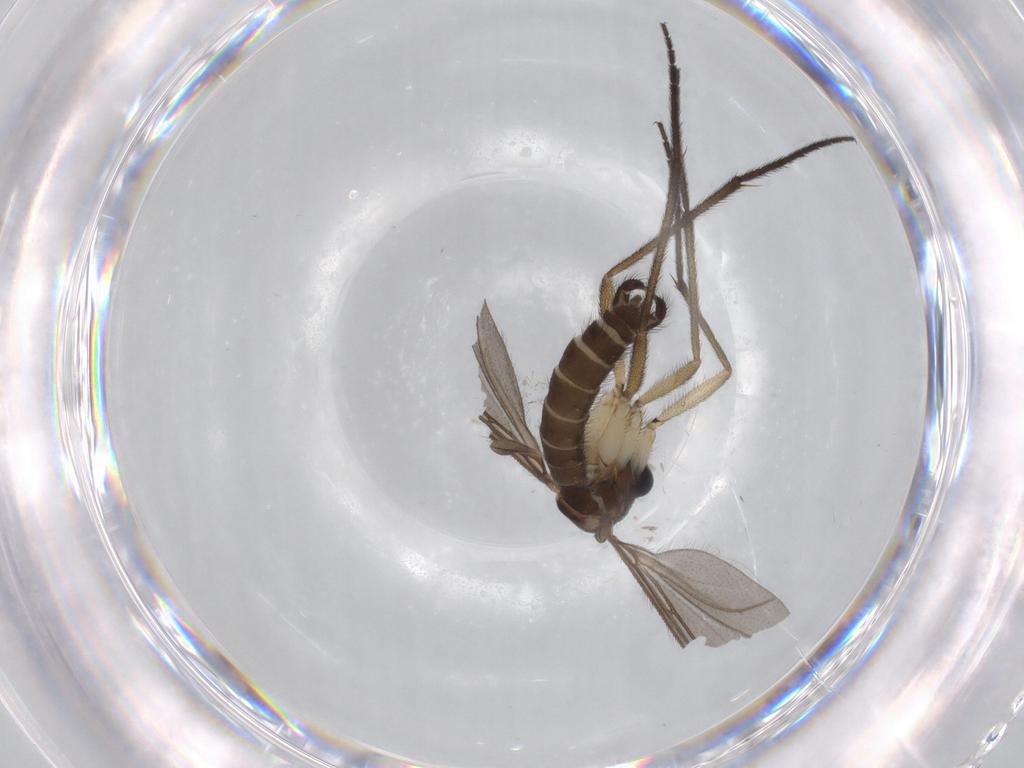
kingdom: Animalia
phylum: Arthropoda
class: Insecta
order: Diptera
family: Sciaridae
